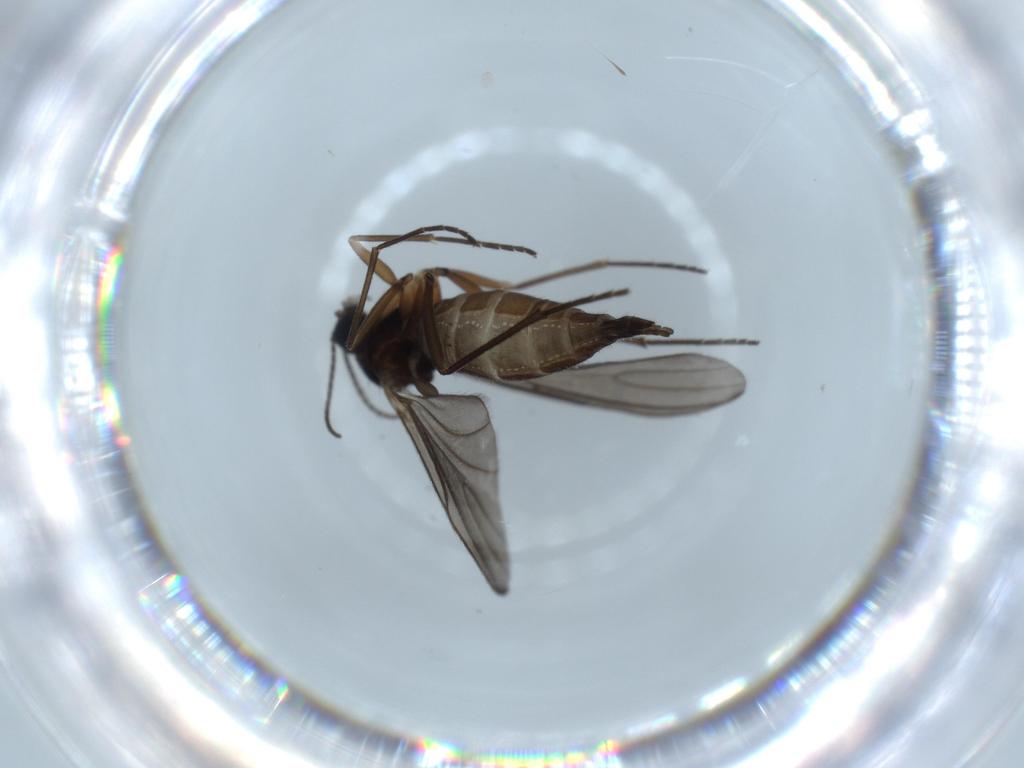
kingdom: Animalia
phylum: Arthropoda
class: Insecta
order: Diptera
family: Sciaridae
